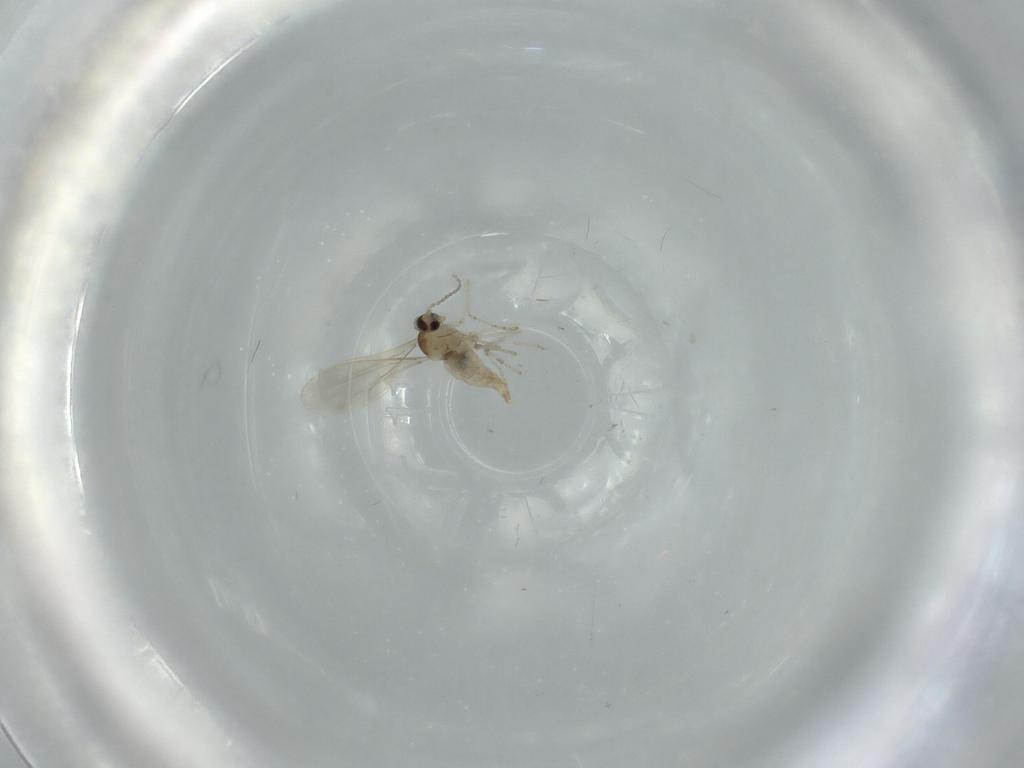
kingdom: Animalia
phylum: Arthropoda
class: Insecta
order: Diptera
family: Cecidomyiidae
